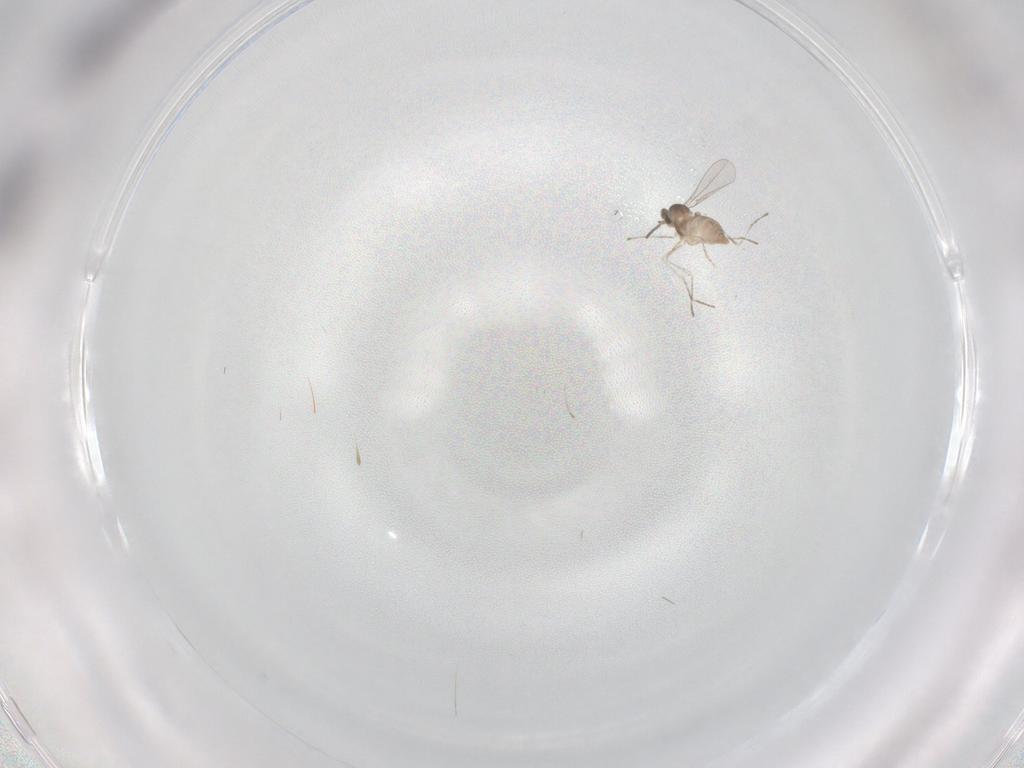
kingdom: Animalia
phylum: Arthropoda
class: Insecta
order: Diptera
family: Cecidomyiidae
